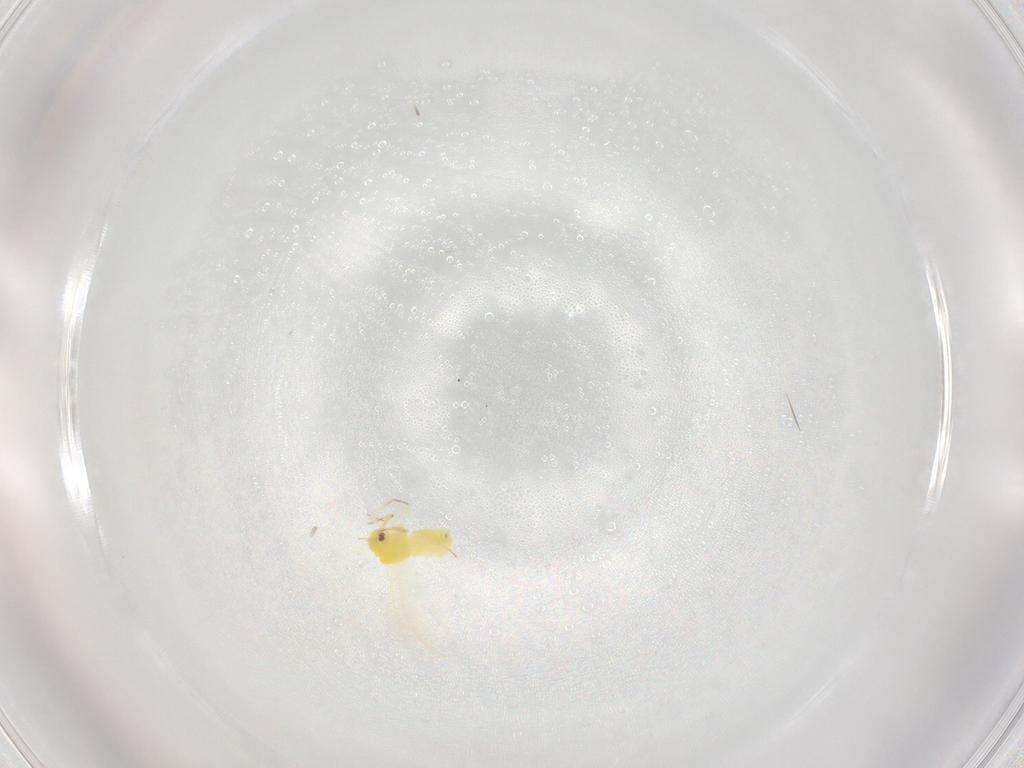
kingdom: Animalia
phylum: Arthropoda
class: Insecta
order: Hemiptera
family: Aleyrodidae
